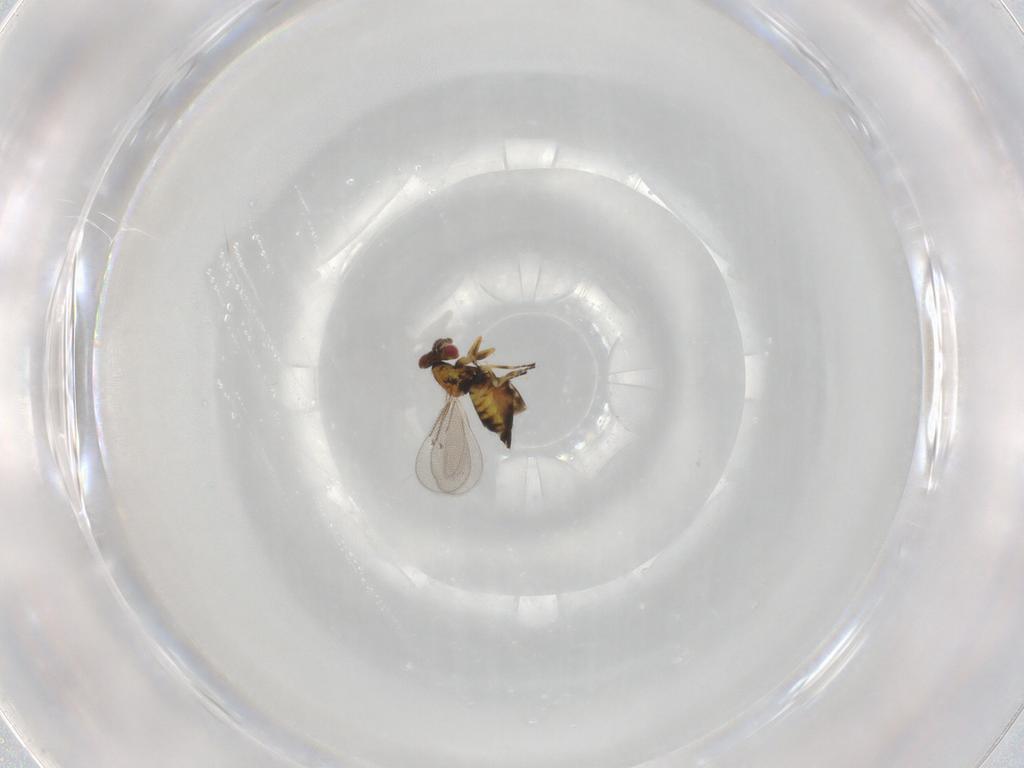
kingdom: Animalia
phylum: Arthropoda
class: Insecta
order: Hymenoptera
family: Eulophidae
